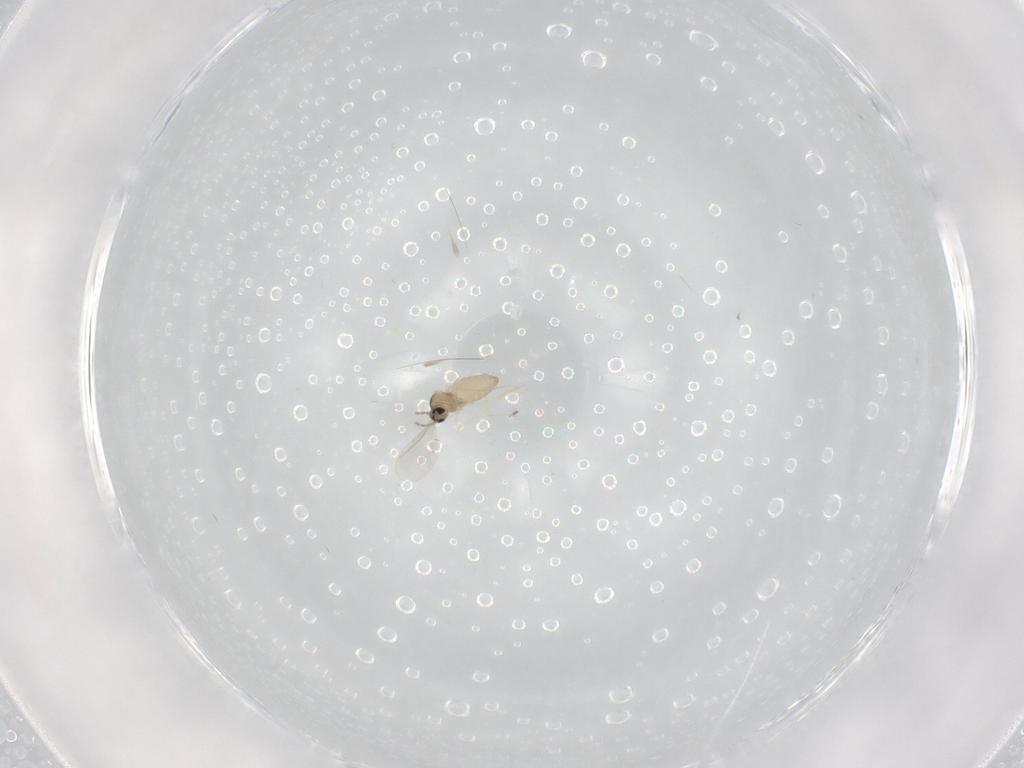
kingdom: Animalia
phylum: Arthropoda
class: Insecta
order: Diptera
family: Cecidomyiidae
